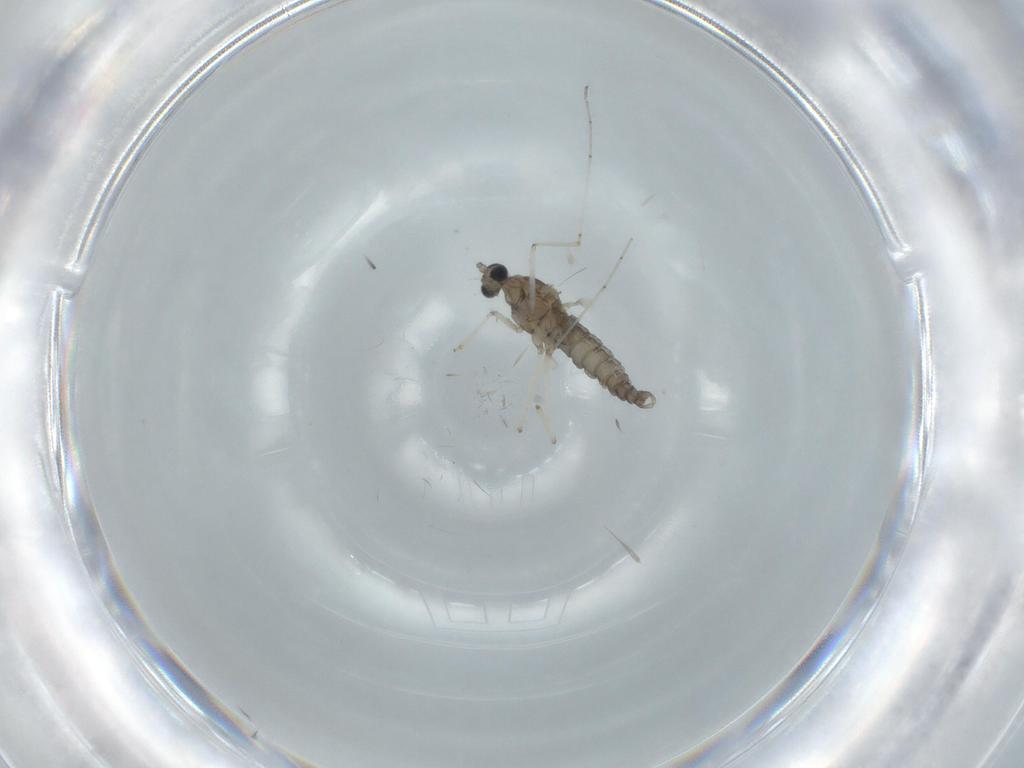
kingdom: Animalia
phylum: Arthropoda
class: Insecta
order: Diptera
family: Cecidomyiidae
